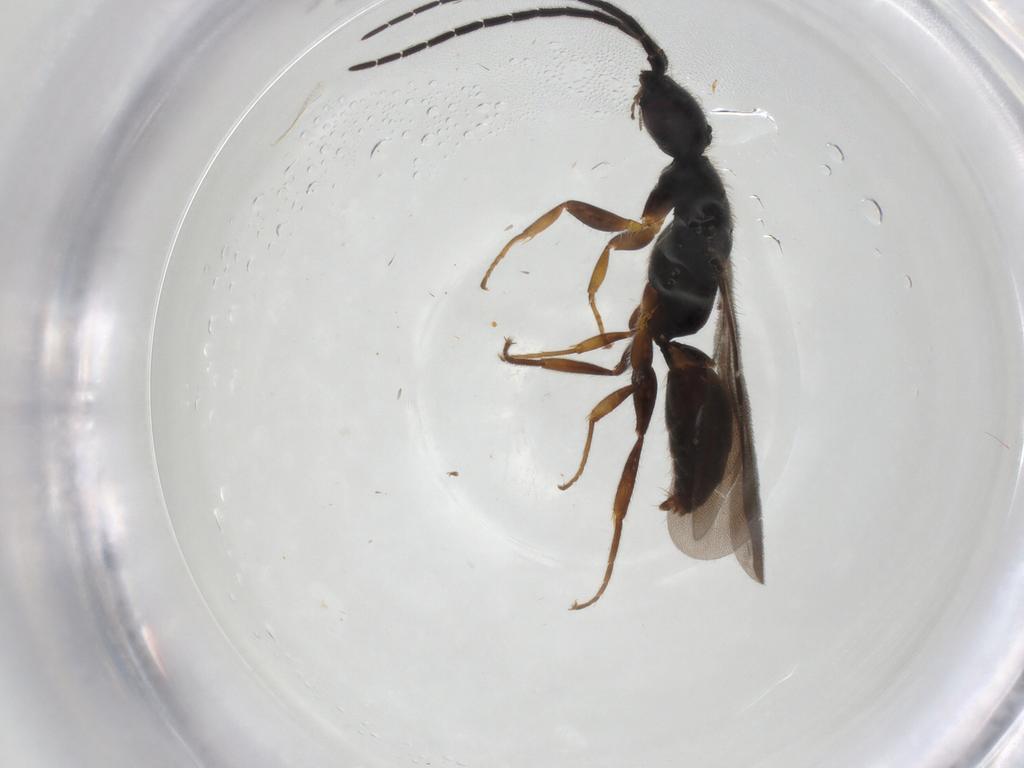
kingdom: Animalia
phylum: Arthropoda
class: Insecta
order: Hymenoptera
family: Bethylidae
